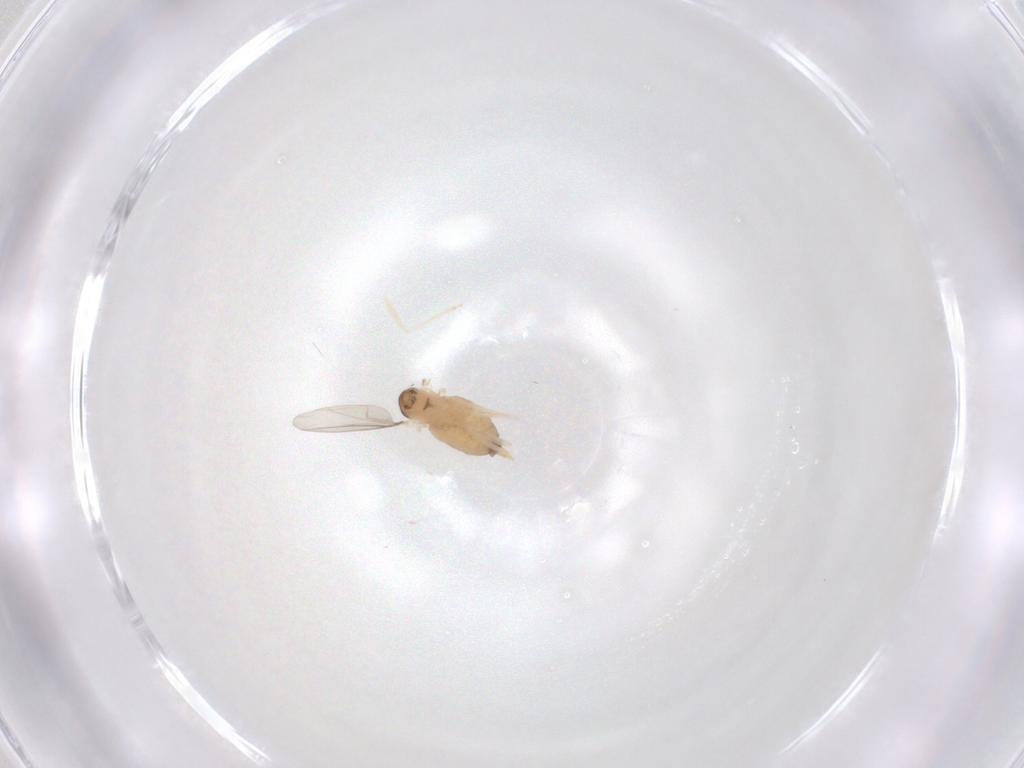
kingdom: Animalia
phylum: Arthropoda
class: Insecta
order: Diptera
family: Cecidomyiidae
